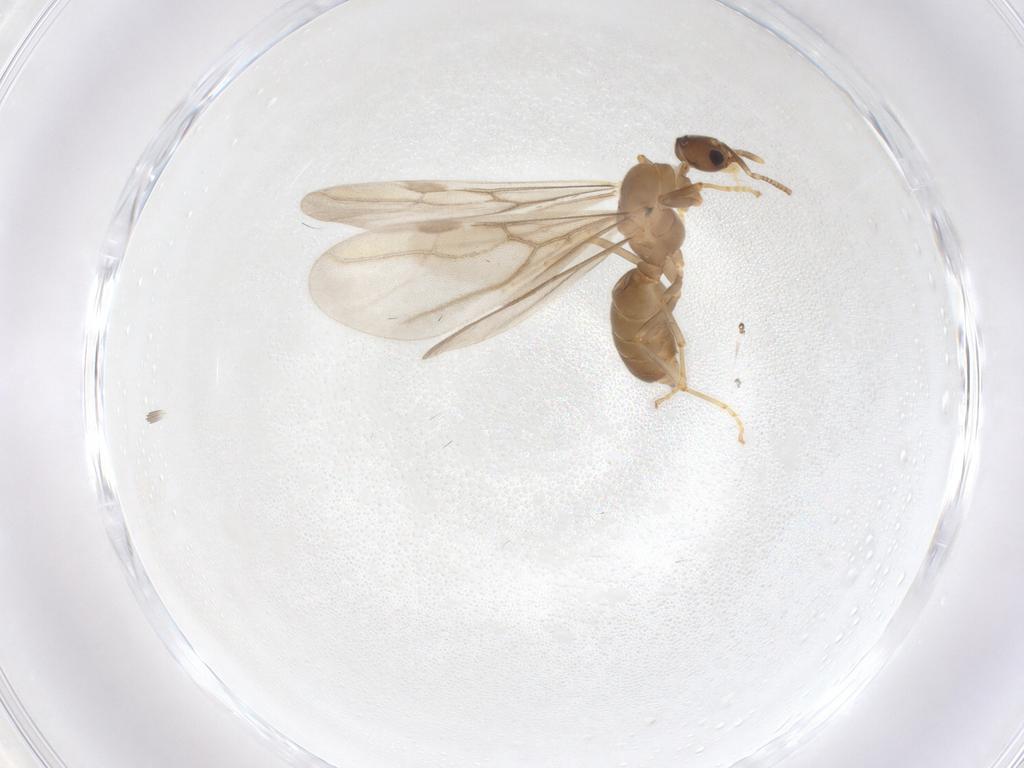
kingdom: Animalia
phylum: Arthropoda
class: Insecta
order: Hymenoptera
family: Formicidae
